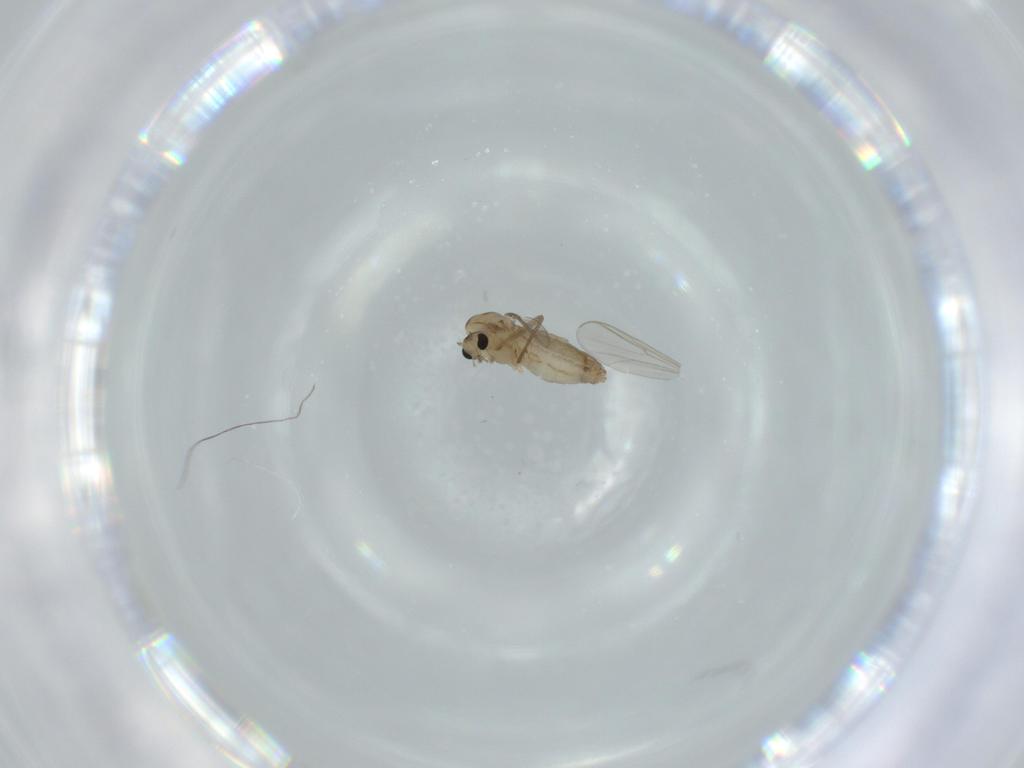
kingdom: Animalia
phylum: Arthropoda
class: Insecta
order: Diptera
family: Chironomidae
